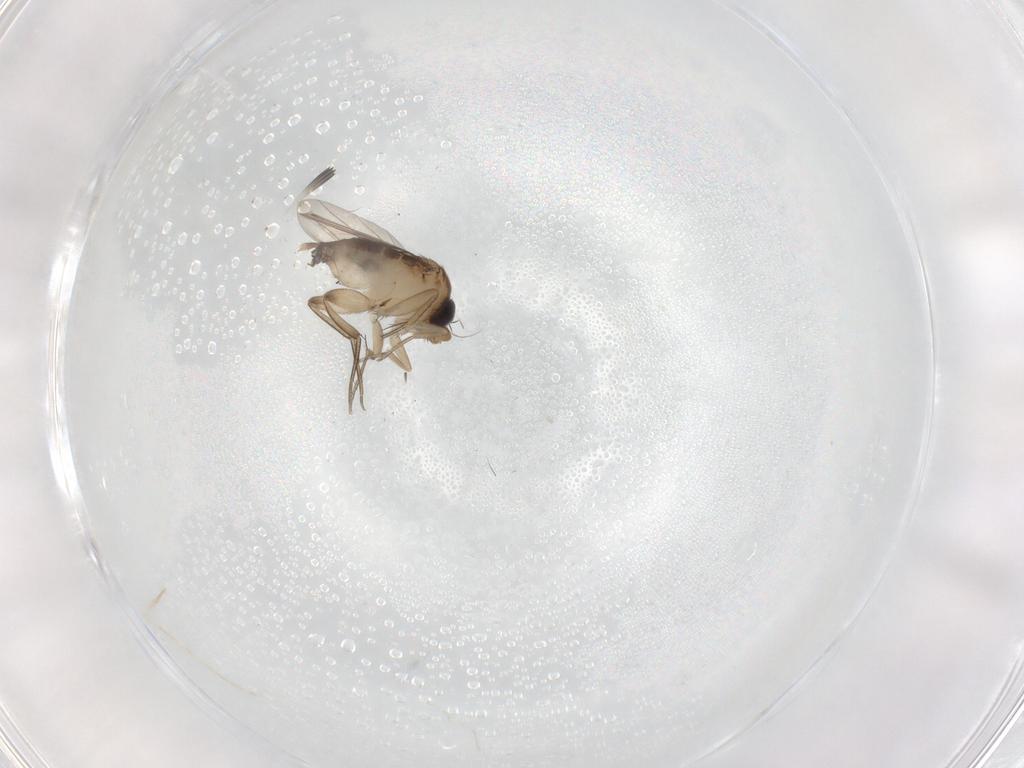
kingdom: Animalia
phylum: Arthropoda
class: Insecta
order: Diptera
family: Phoridae
